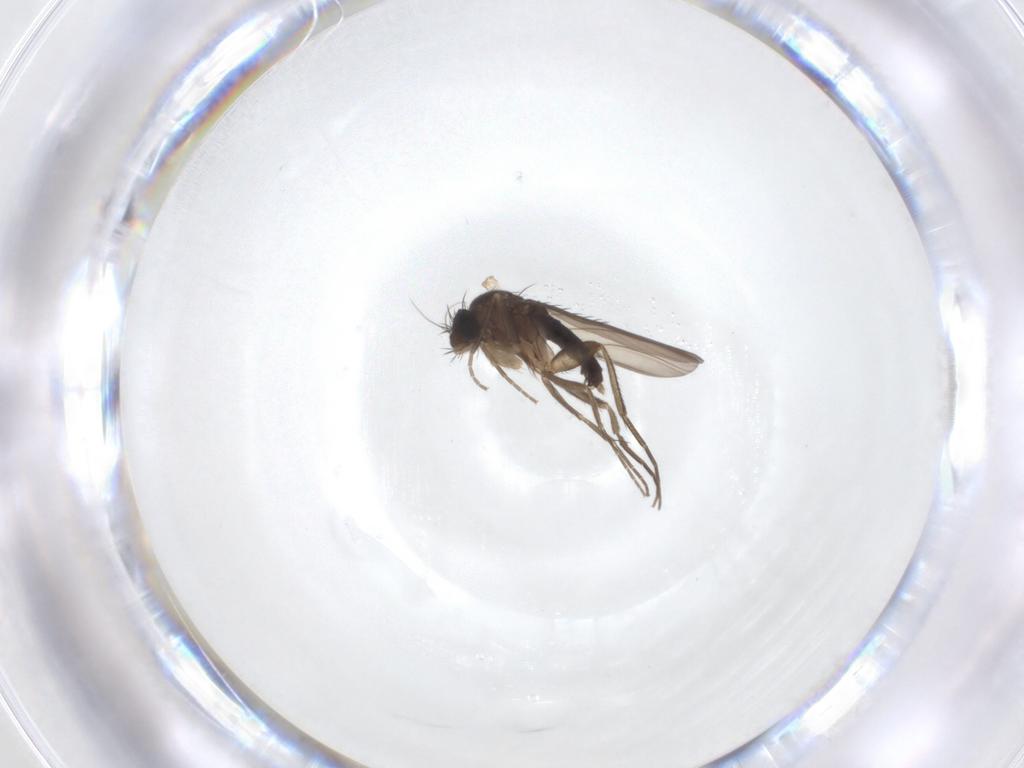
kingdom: Animalia
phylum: Arthropoda
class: Insecta
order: Diptera
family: Phoridae
